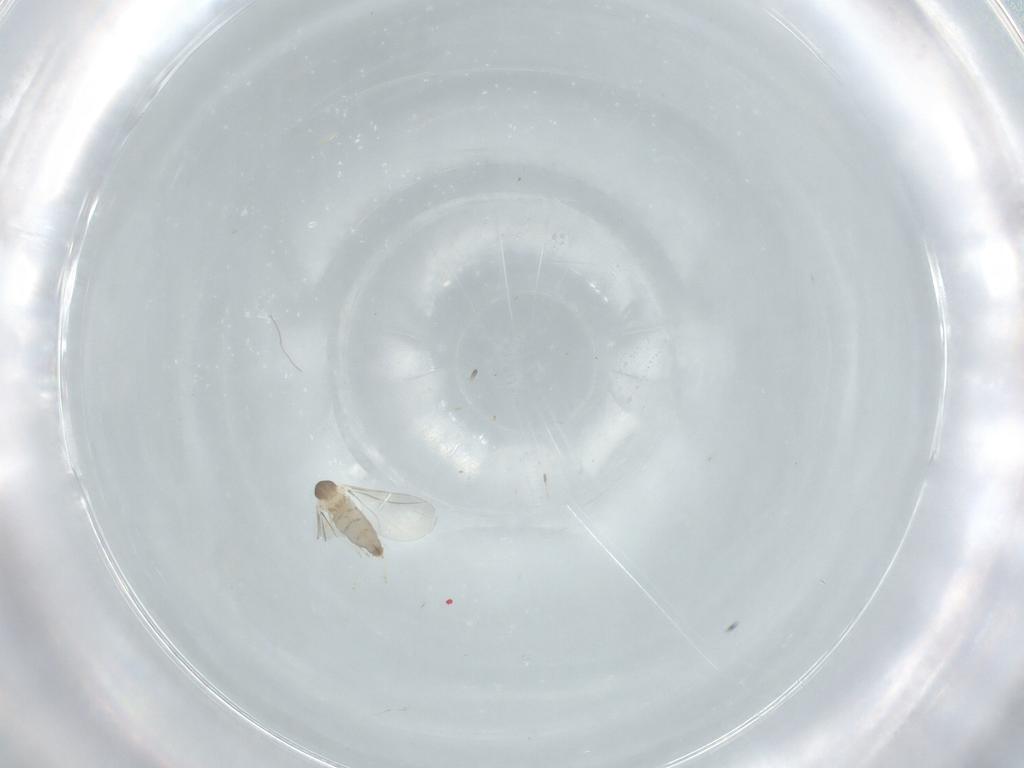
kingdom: Animalia
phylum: Arthropoda
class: Insecta
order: Diptera
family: Cecidomyiidae
